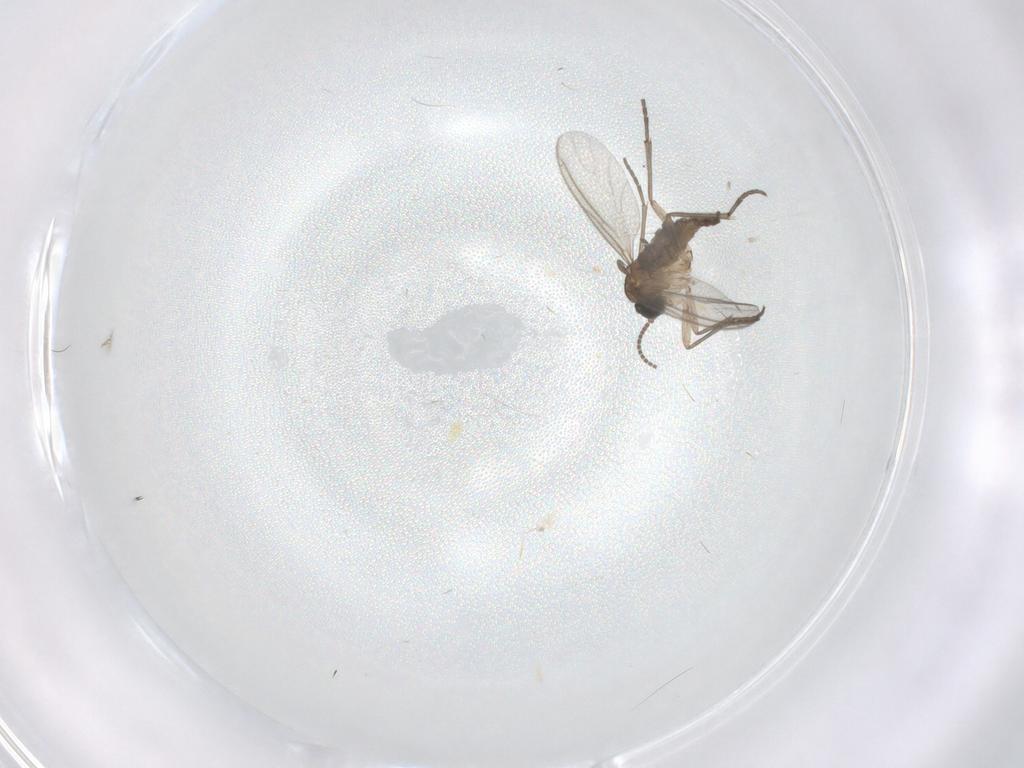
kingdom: Animalia
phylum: Arthropoda
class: Insecta
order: Diptera
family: Sciaridae
